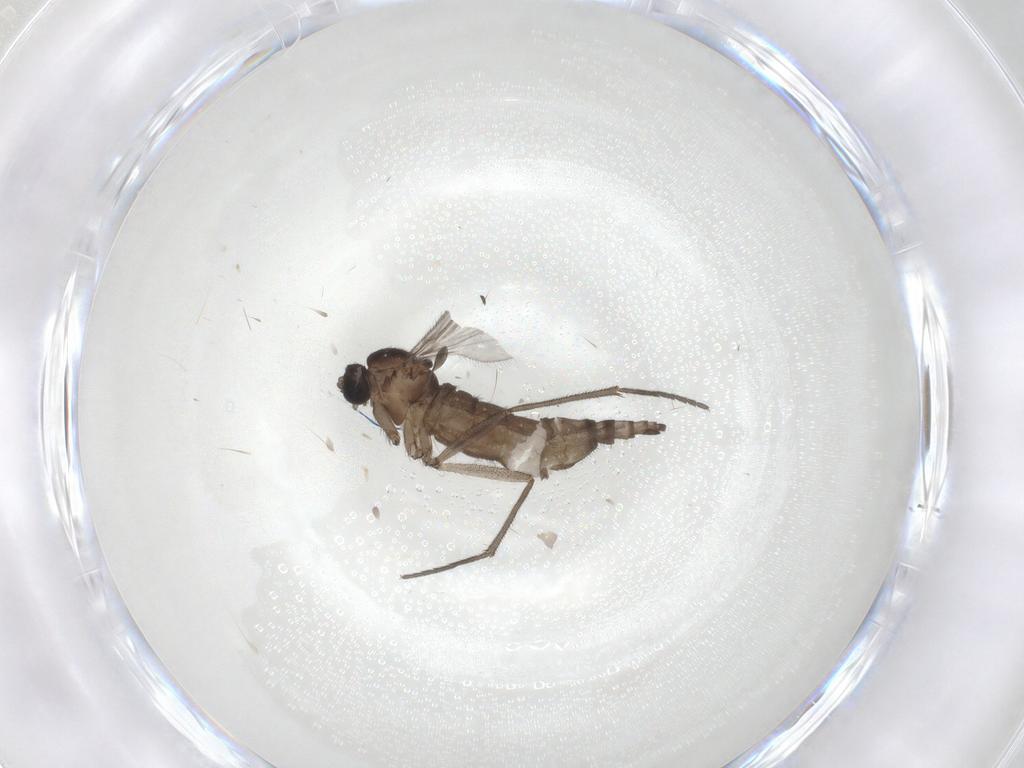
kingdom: Animalia
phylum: Arthropoda
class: Insecta
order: Diptera
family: Sciaridae
